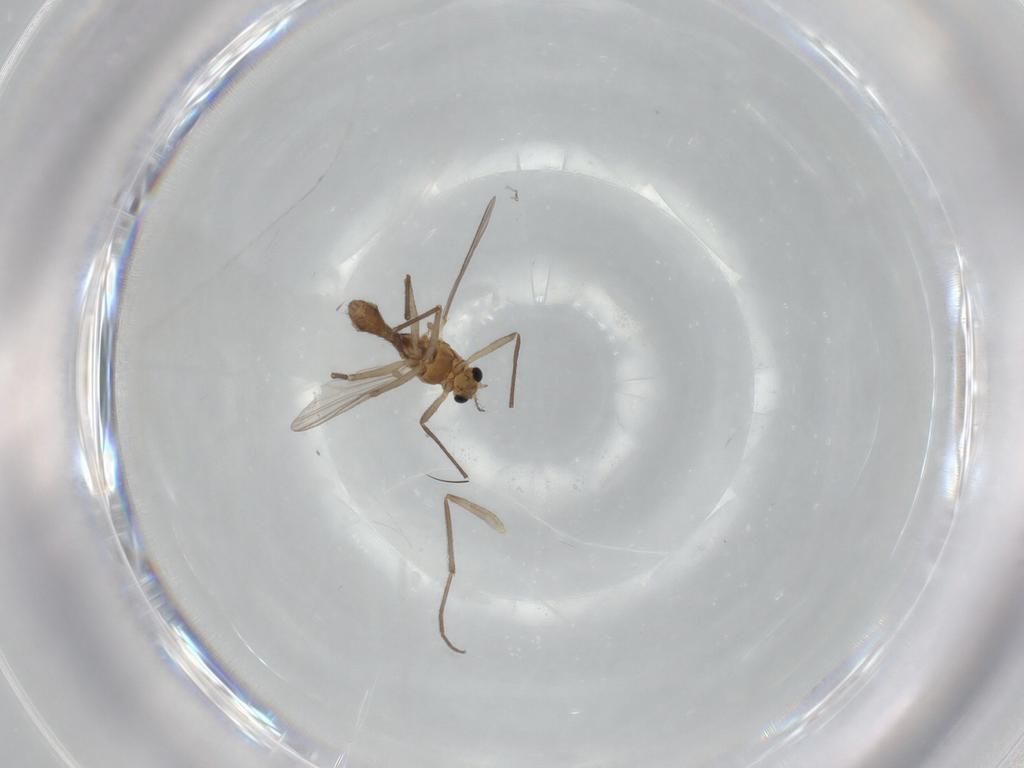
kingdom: Animalia
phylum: Arthropoda
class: Insecta
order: Diptera
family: Chironomidae
